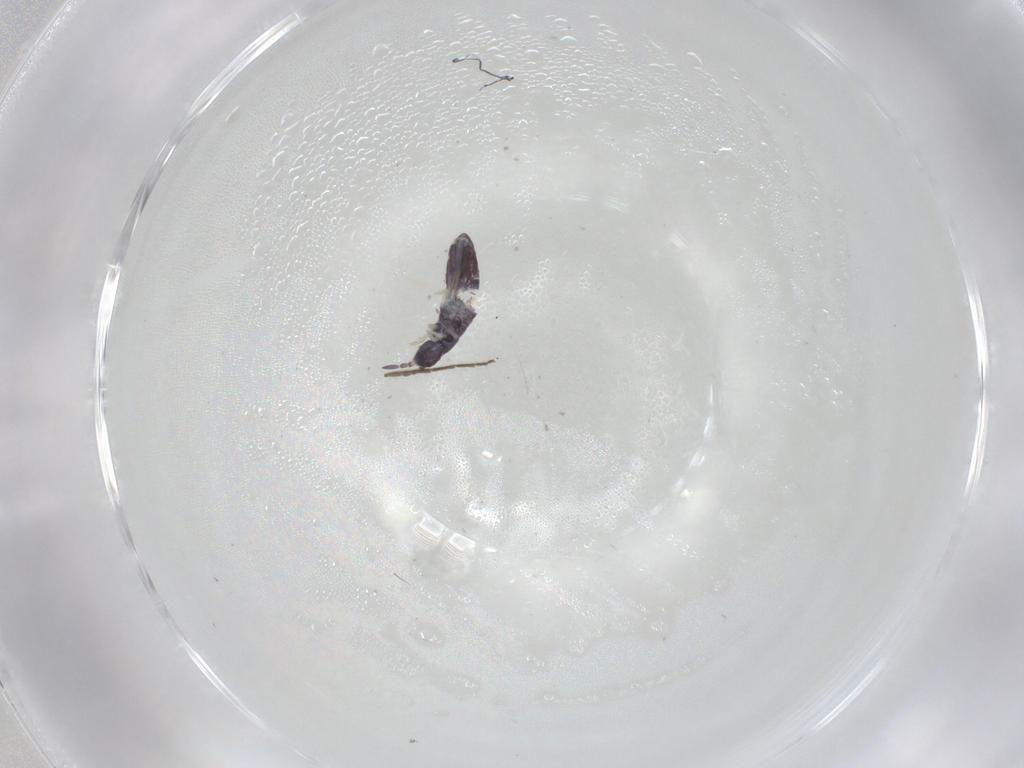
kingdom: Animalia
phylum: Arthropoda
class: Collembola
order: Entomobryomorpha
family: Entomobryidae
